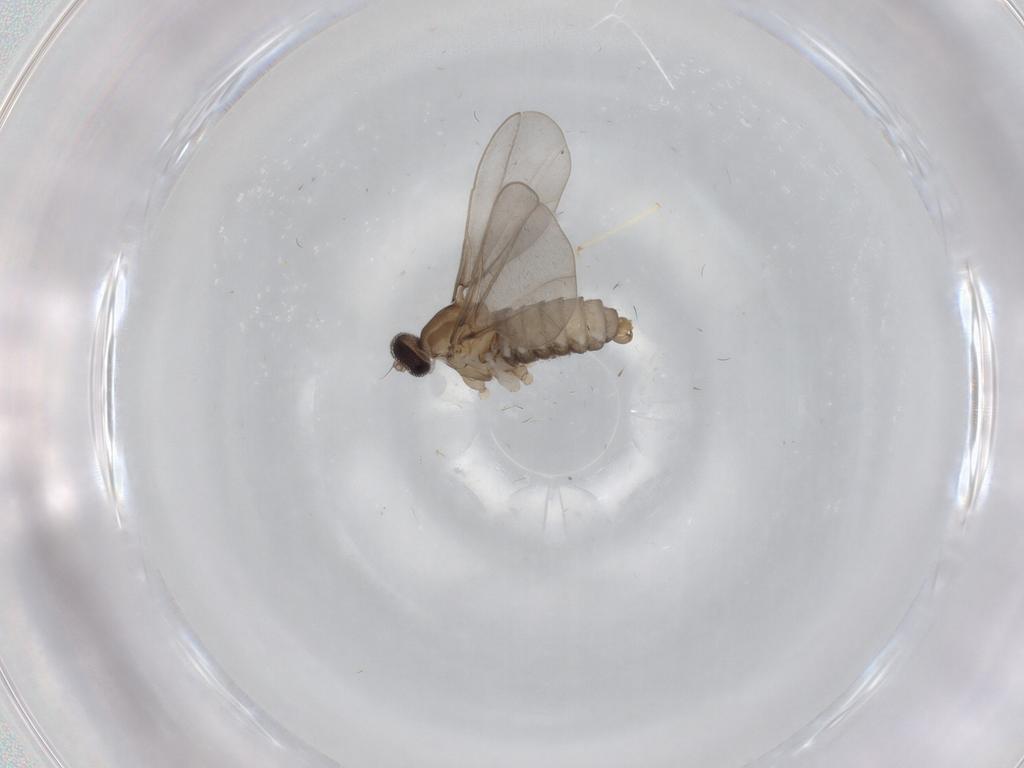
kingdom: Animalia
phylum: Arthropoda
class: Insecta
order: Diptera
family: Cecidomyiidae
